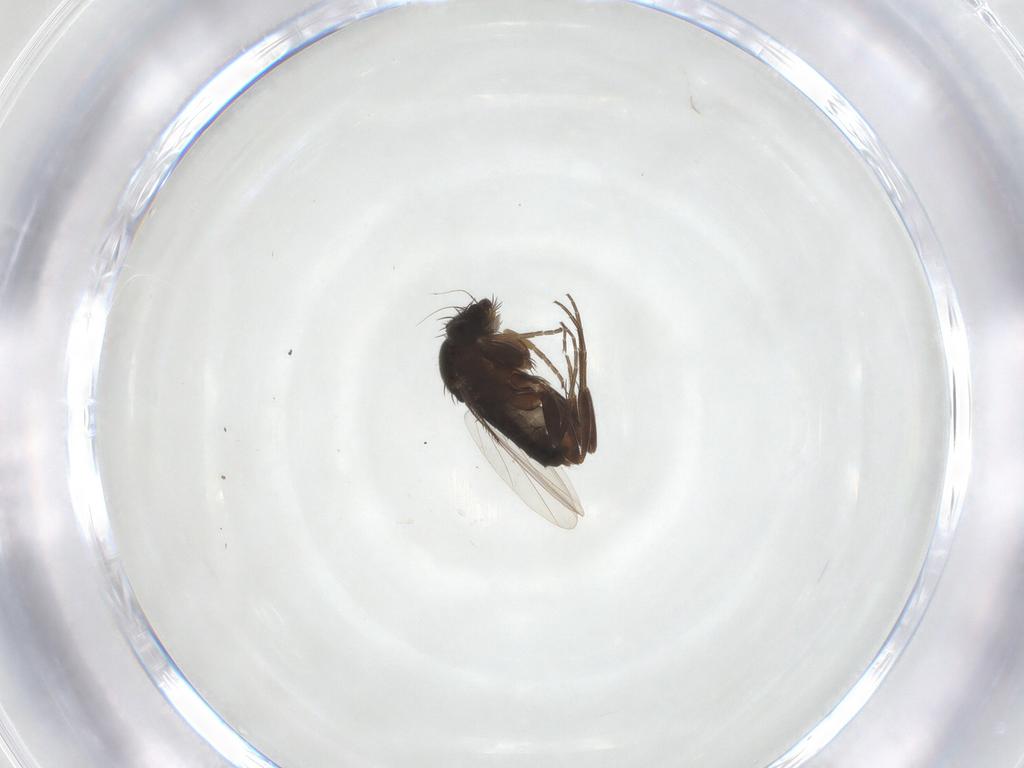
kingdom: Animalia
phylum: Arthropoda
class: Insecta
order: Diptera
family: Phoridae
